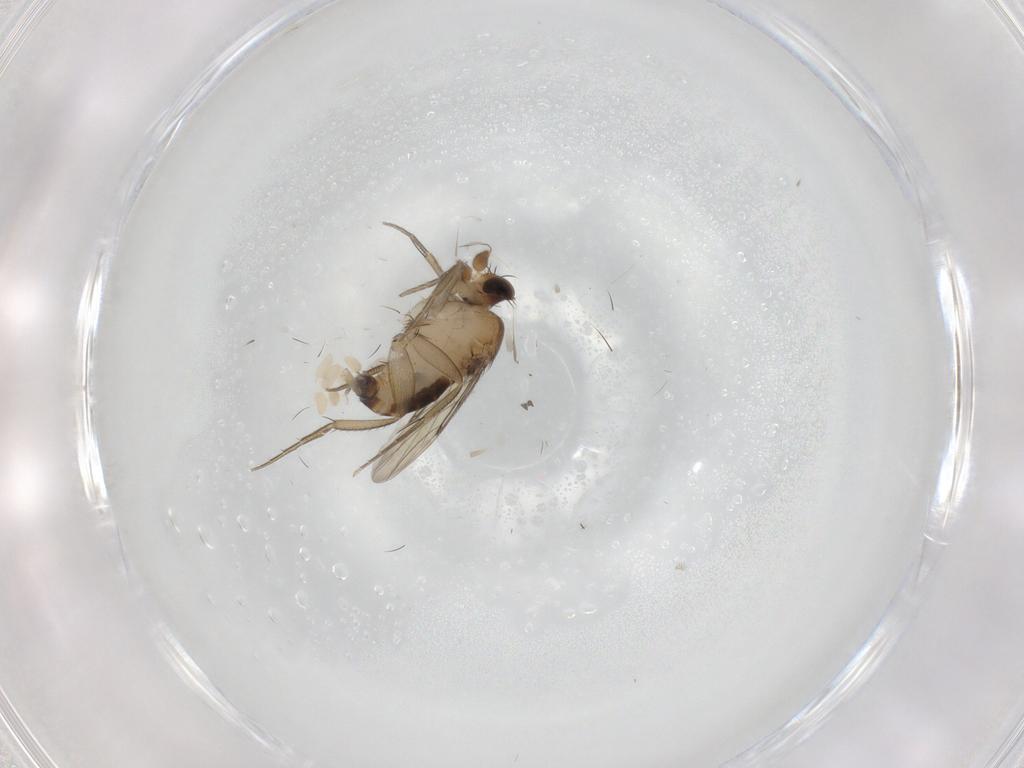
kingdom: Animalia
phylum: Arthropoda
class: Insecta
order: Diptera
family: Phoridae
